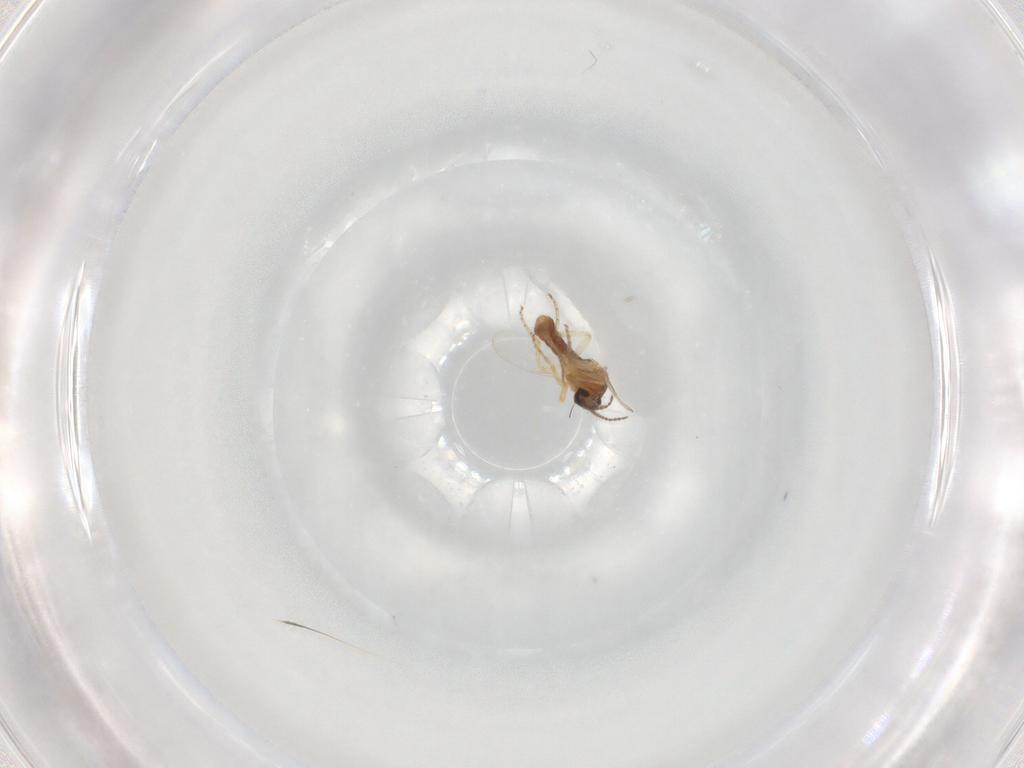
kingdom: Animalia
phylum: Arthropoda
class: Insecta
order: Diptera
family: Ceratopogonidae
